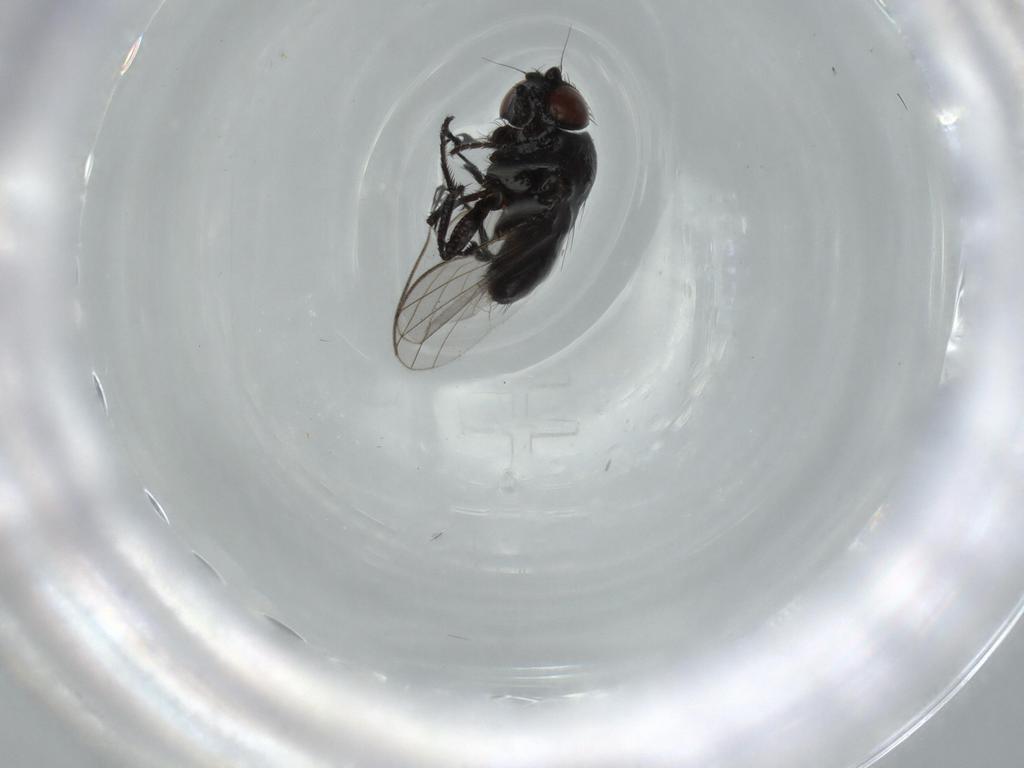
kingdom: Animalia
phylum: Arthropoda
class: Insecta
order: Diptera
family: Milichiidae
